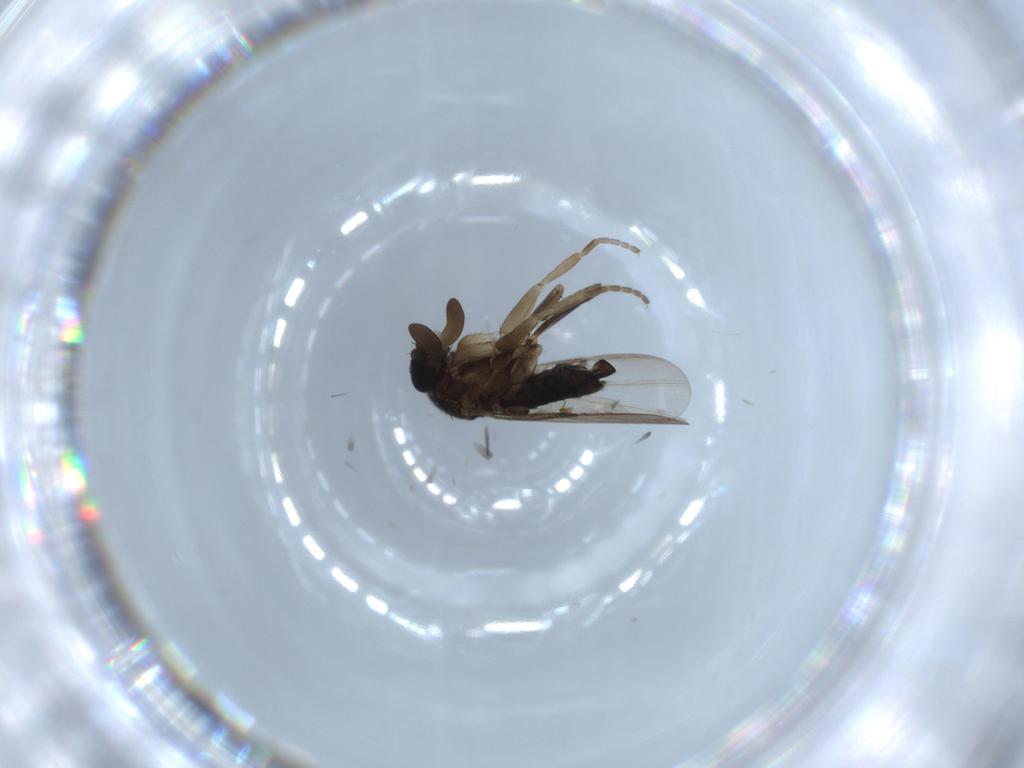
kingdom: Animalia
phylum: Arthropoda
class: Insecta
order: Diptera
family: Phoridae
